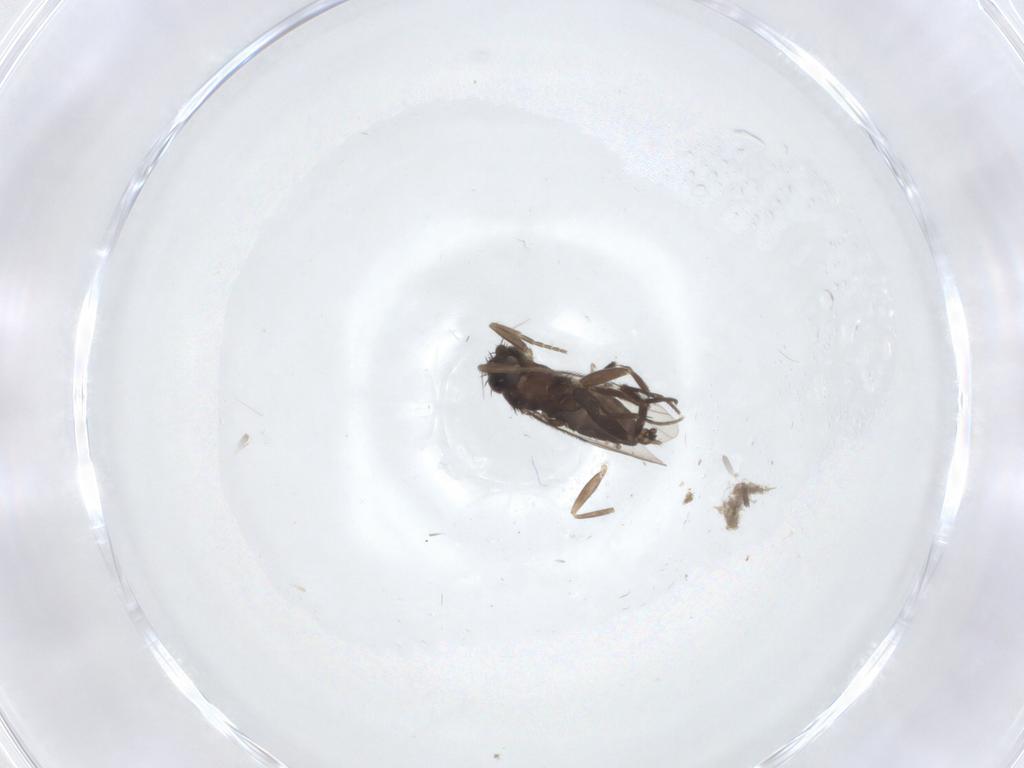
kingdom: Animalia
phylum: Arthropoda
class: Insecta
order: Diptera
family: Phoridae
